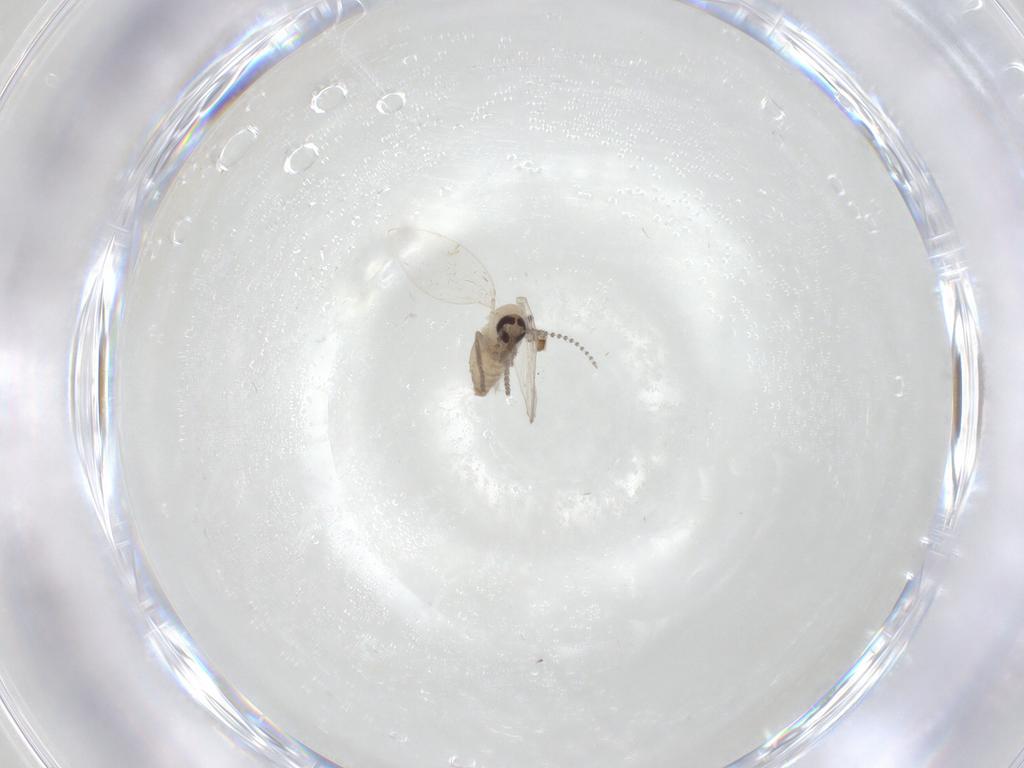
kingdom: Animalia
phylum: Arthropoda
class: Insecta
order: Diptera
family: Psychodidae
